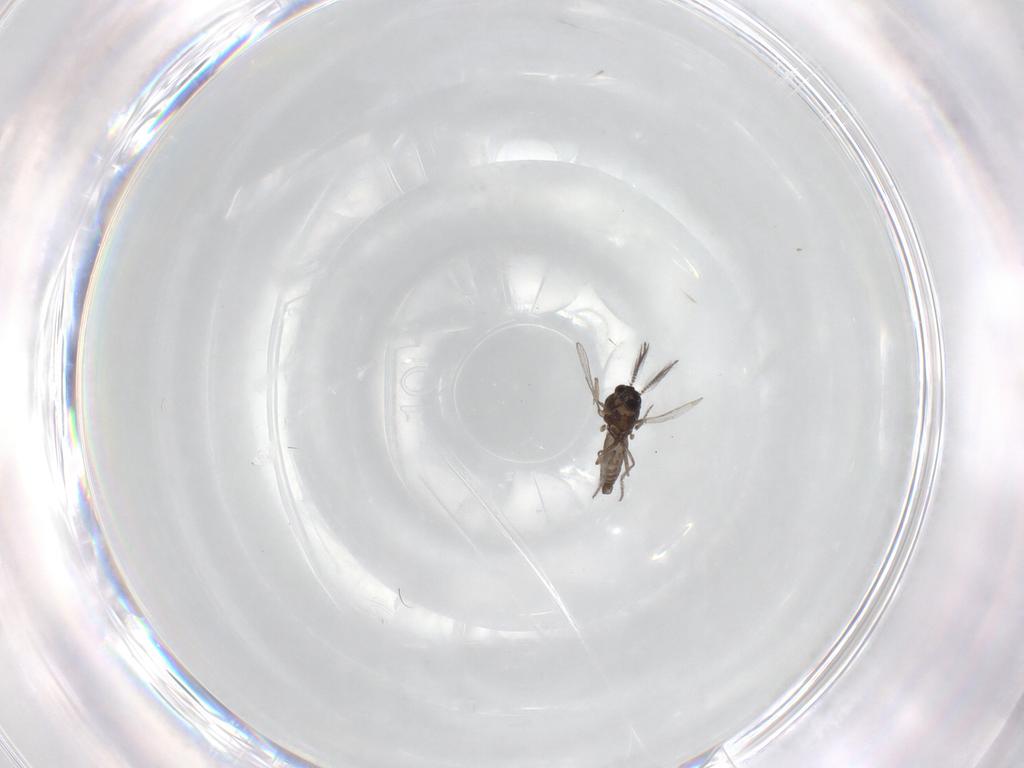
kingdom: Animalia
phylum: Arthropoda
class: Insecta
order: Diptera
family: Ceratopogonidae
